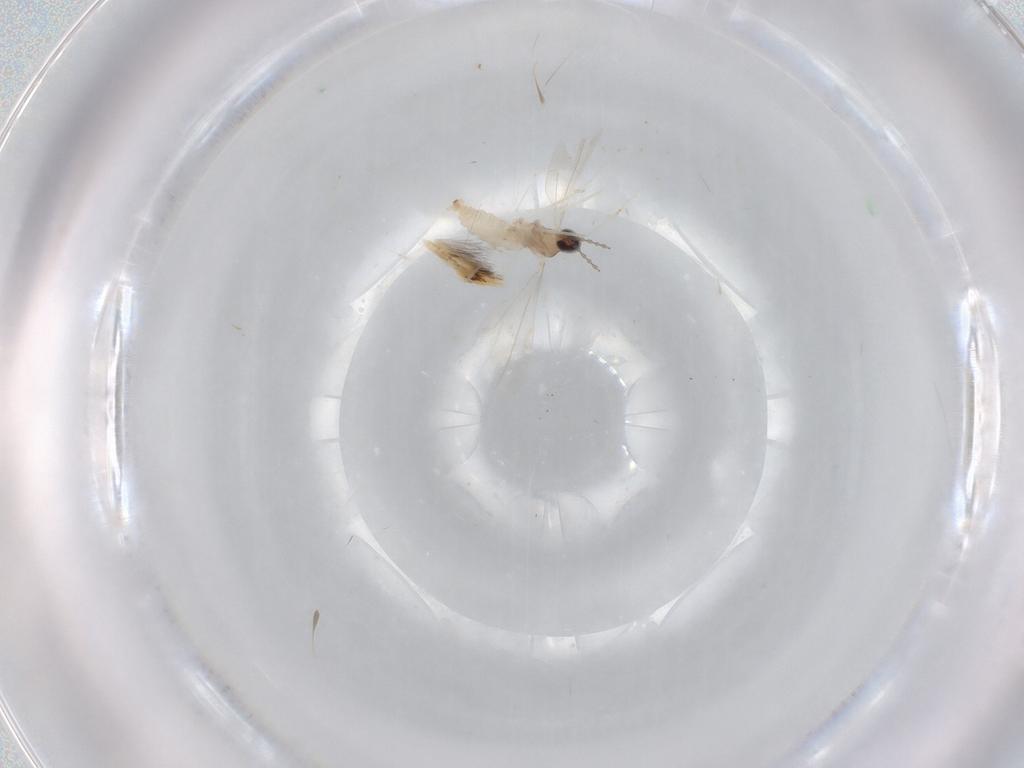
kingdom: Animalia
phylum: Arthropoda
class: Insecta
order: Diptera
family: Cecidomyiidae
